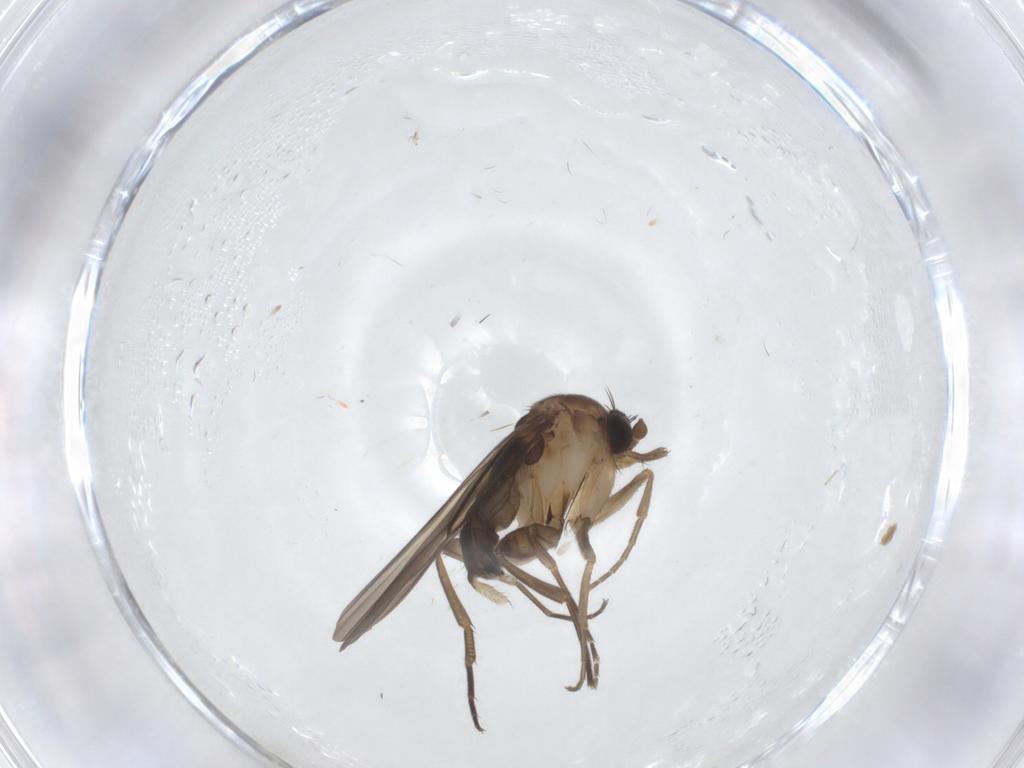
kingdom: Animalia
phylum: Arthropoda
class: Insecta
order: Diptera
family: Phoridae
